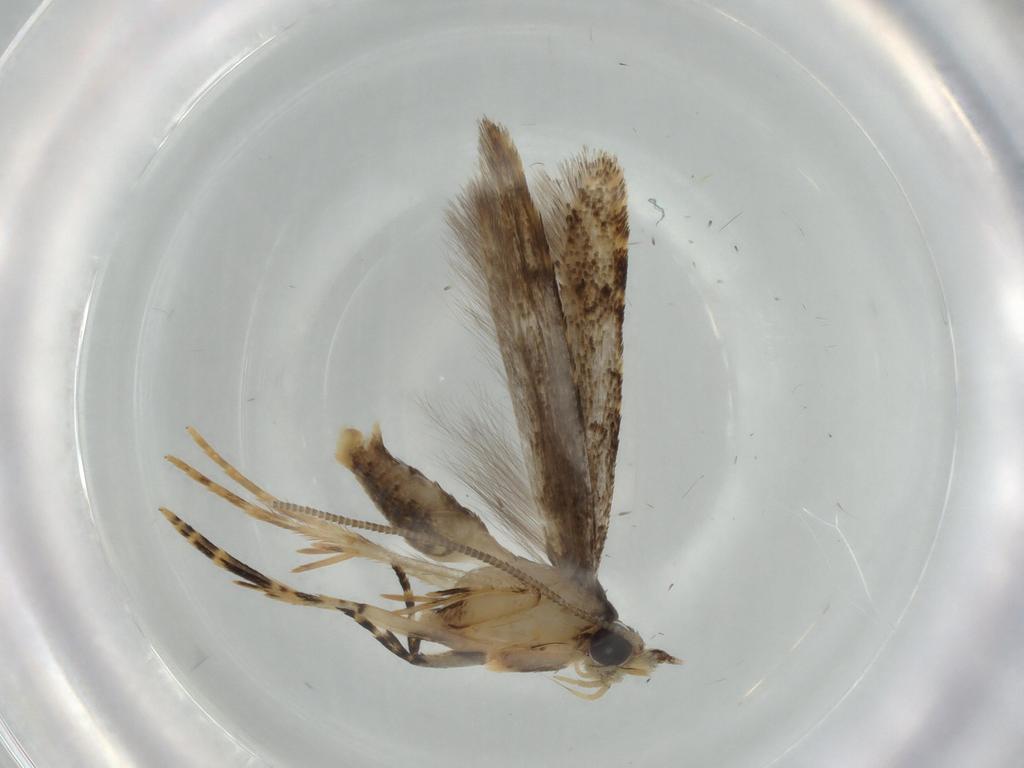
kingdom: Animalia
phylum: Arthropoda
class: Insecta
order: Lepidoptera
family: Tineidae
